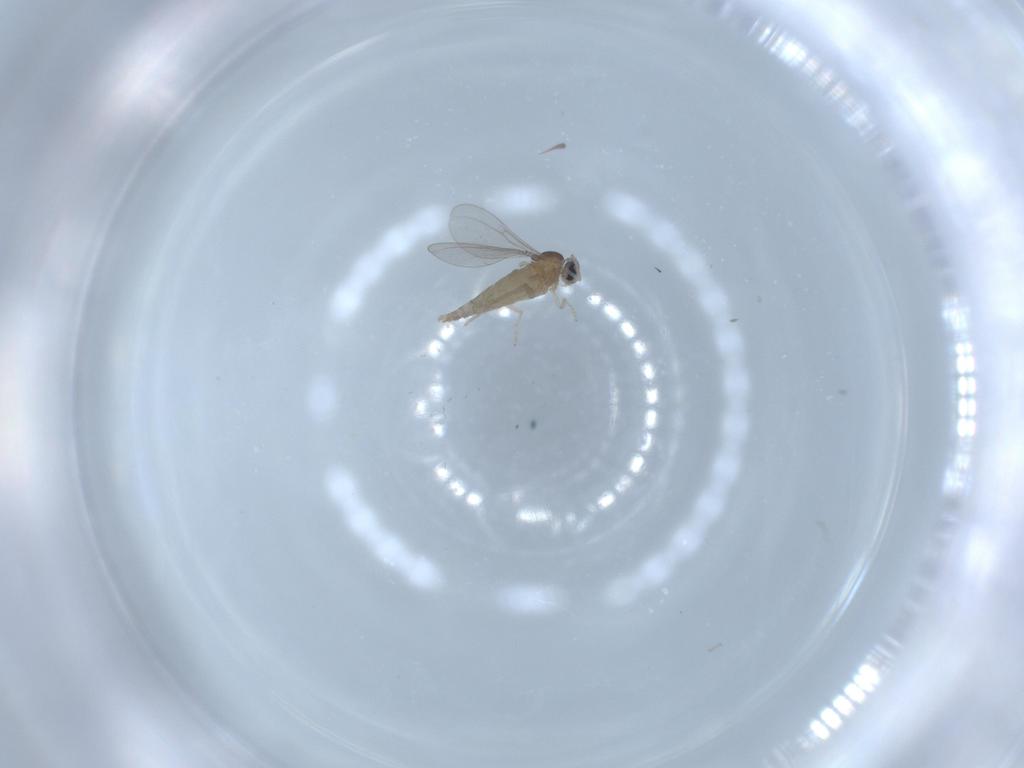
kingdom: Animalia
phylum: Arthropoda
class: Insecta
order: Diptera
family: Cecidomyiidae
